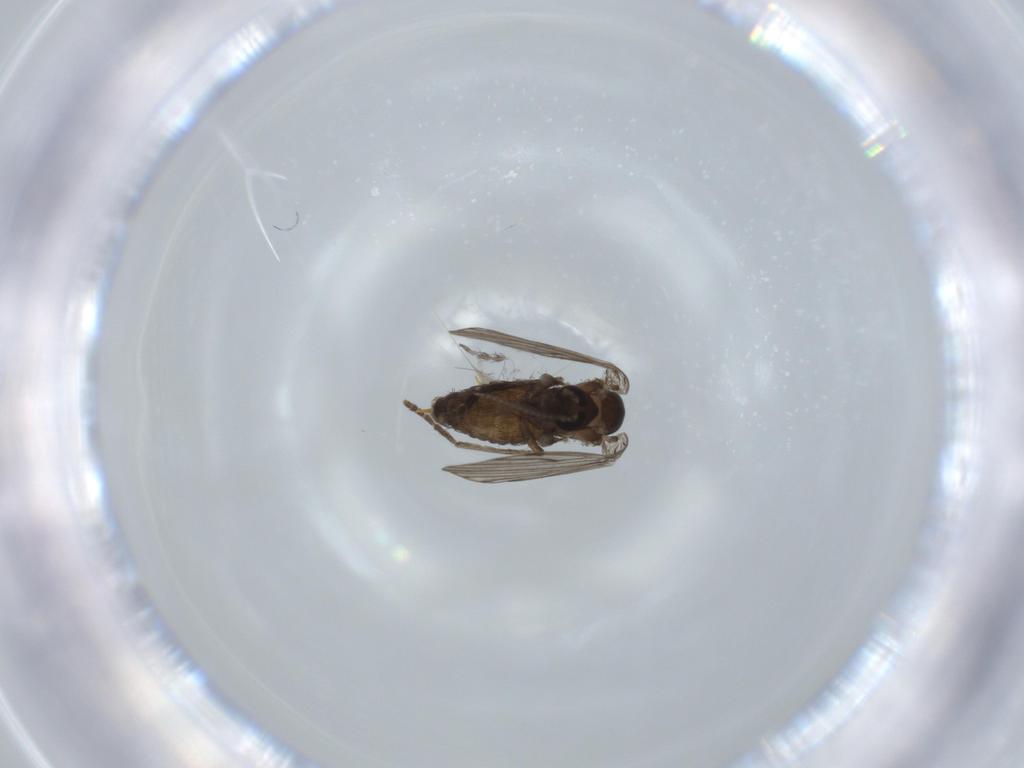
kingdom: Animalia
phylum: Arthropoda
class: Insecta
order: Diptera
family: Psychodidae
